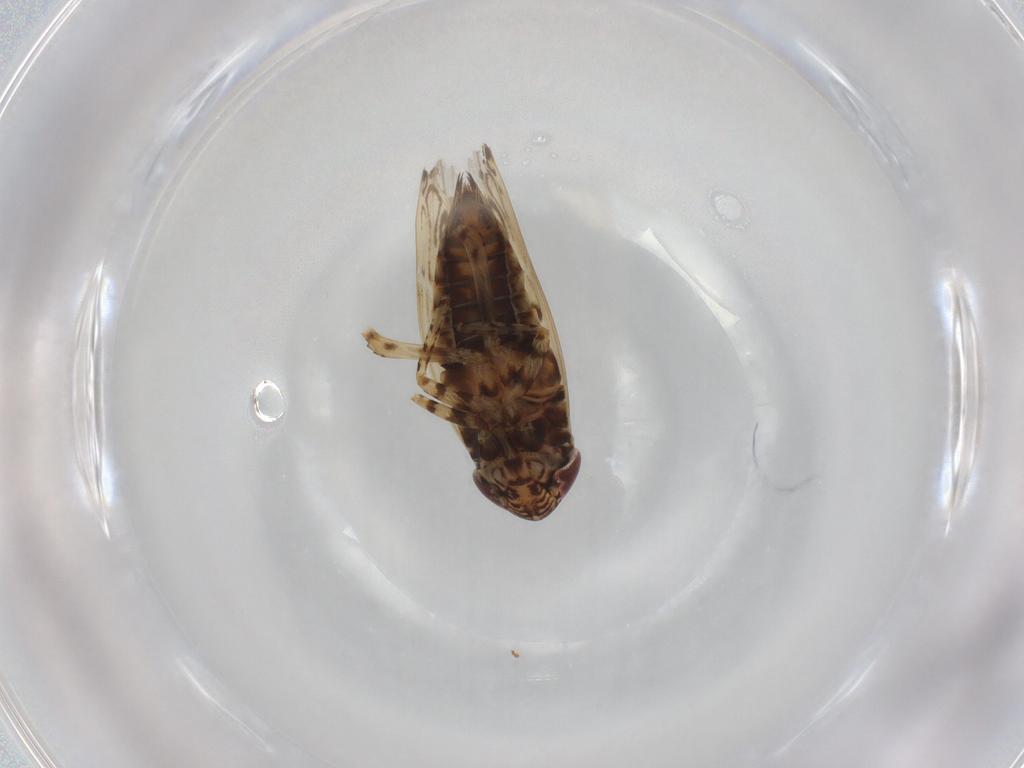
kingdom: Animalia
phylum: Arthropoda
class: Insecta
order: Hemiptera
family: Cicadellidae
